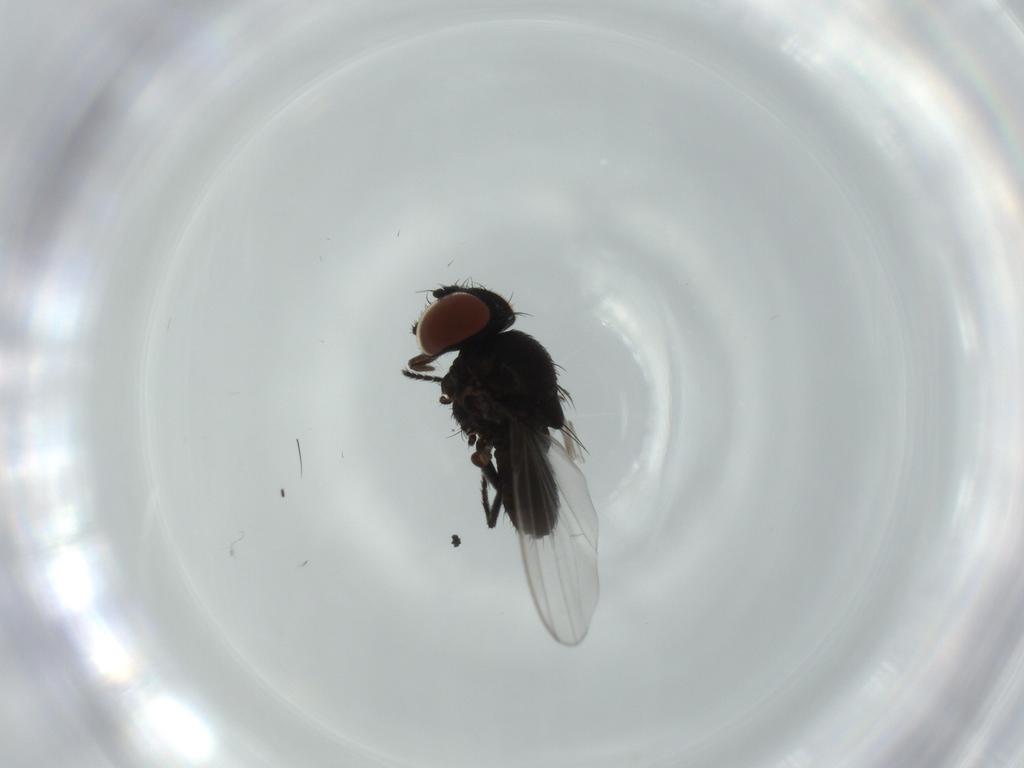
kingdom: Animalia
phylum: Arthropoda
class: Insecta
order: Diptera
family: Milichiidae
